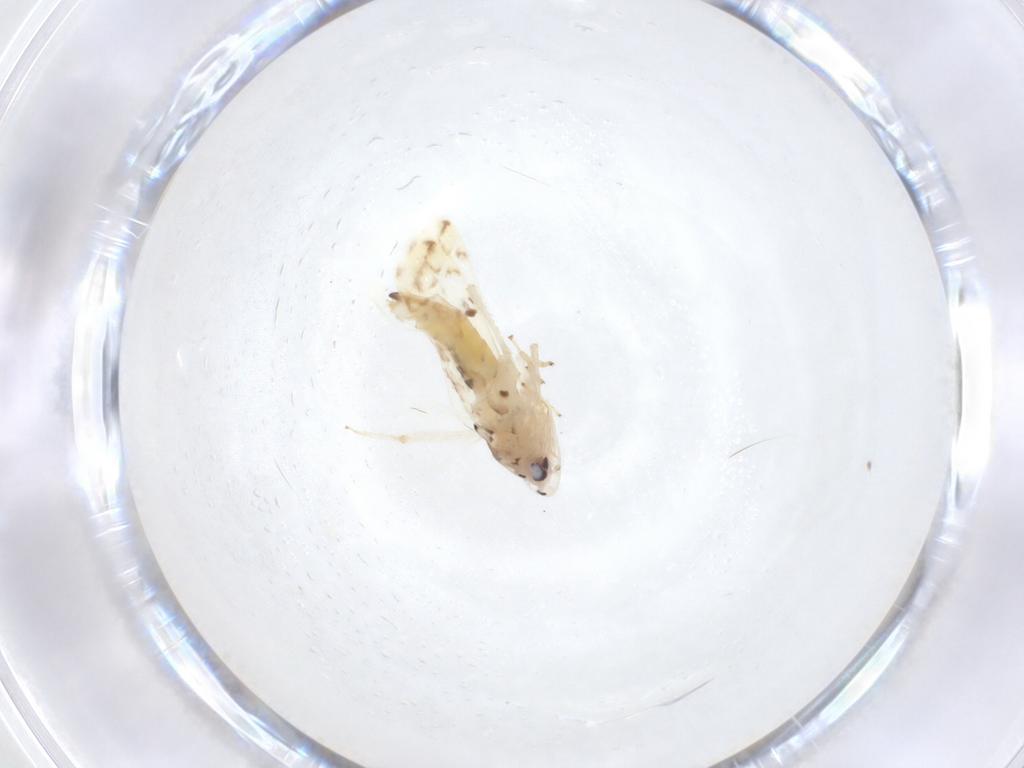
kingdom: Animalia
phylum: Arthropoda
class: Insecta
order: Hemiptera
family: Cicadellidae
